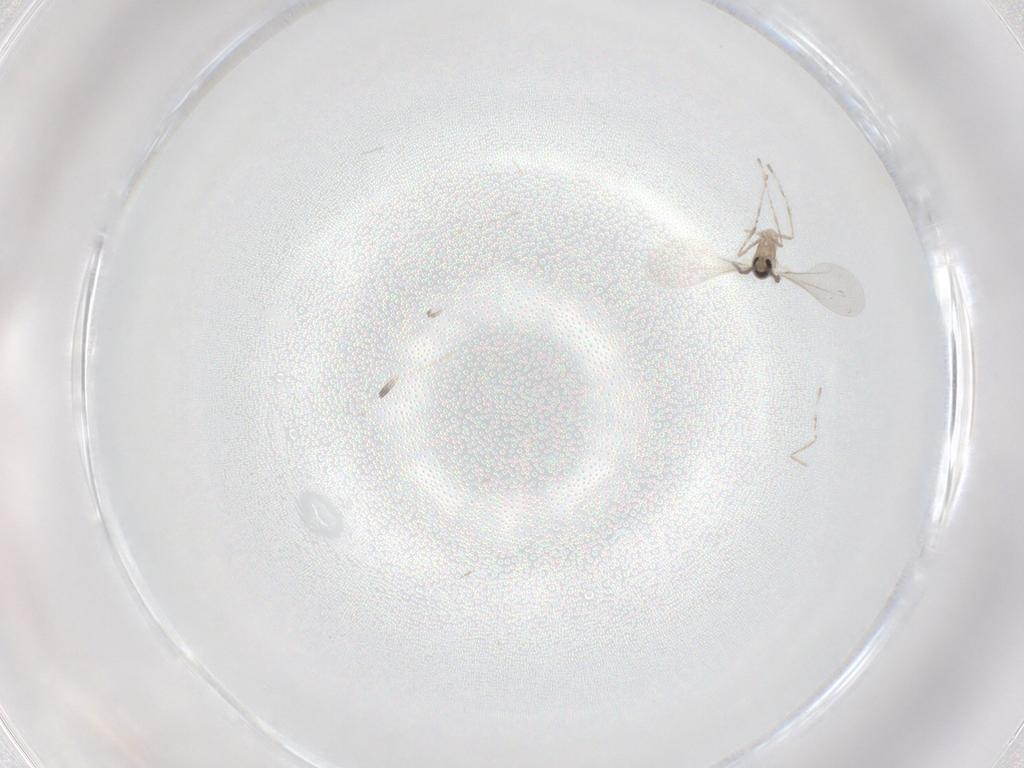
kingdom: Animalia
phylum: Arthropoda
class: Insecta
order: Diptera
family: Cecidomyiidae
